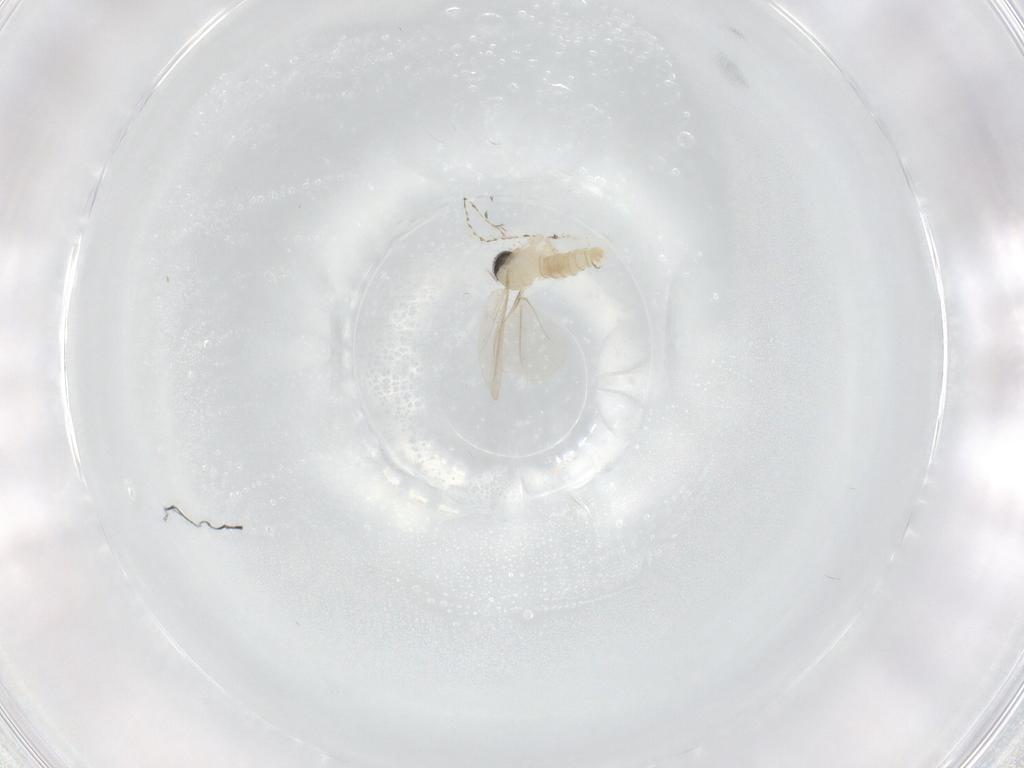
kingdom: Animalia
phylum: Arthropoda
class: Insecta
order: Diptera
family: Cecidomyiidae
